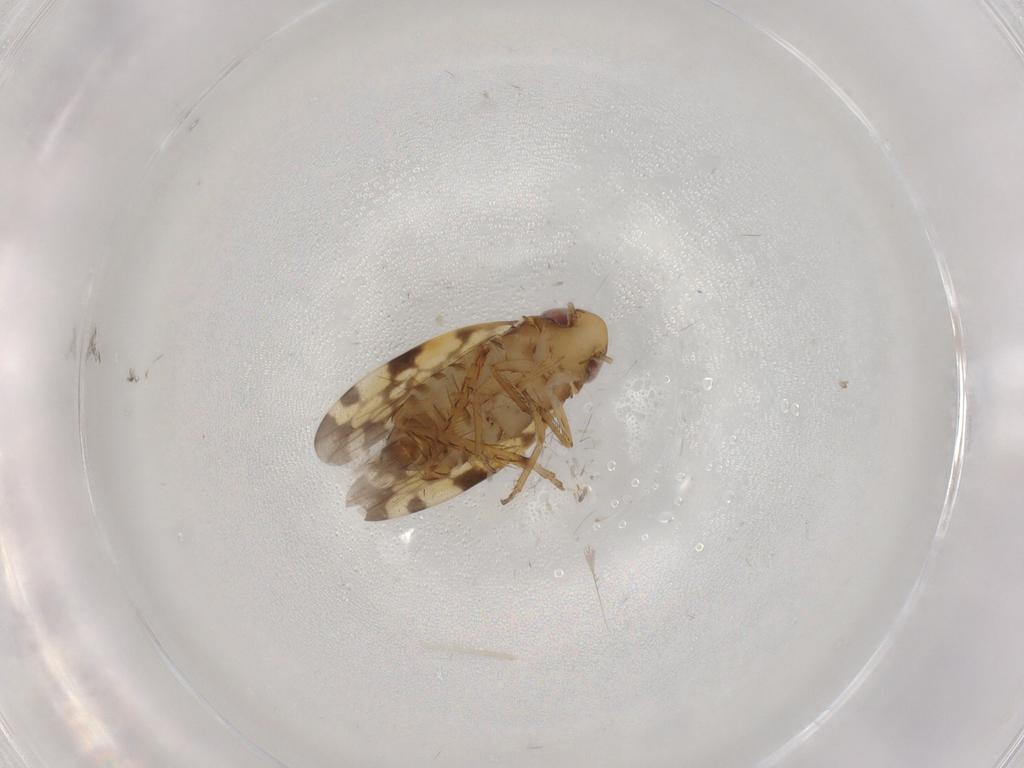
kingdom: Animalia
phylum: Arthropoda
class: Insecta
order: Hemiptera
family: Cicadellidae
